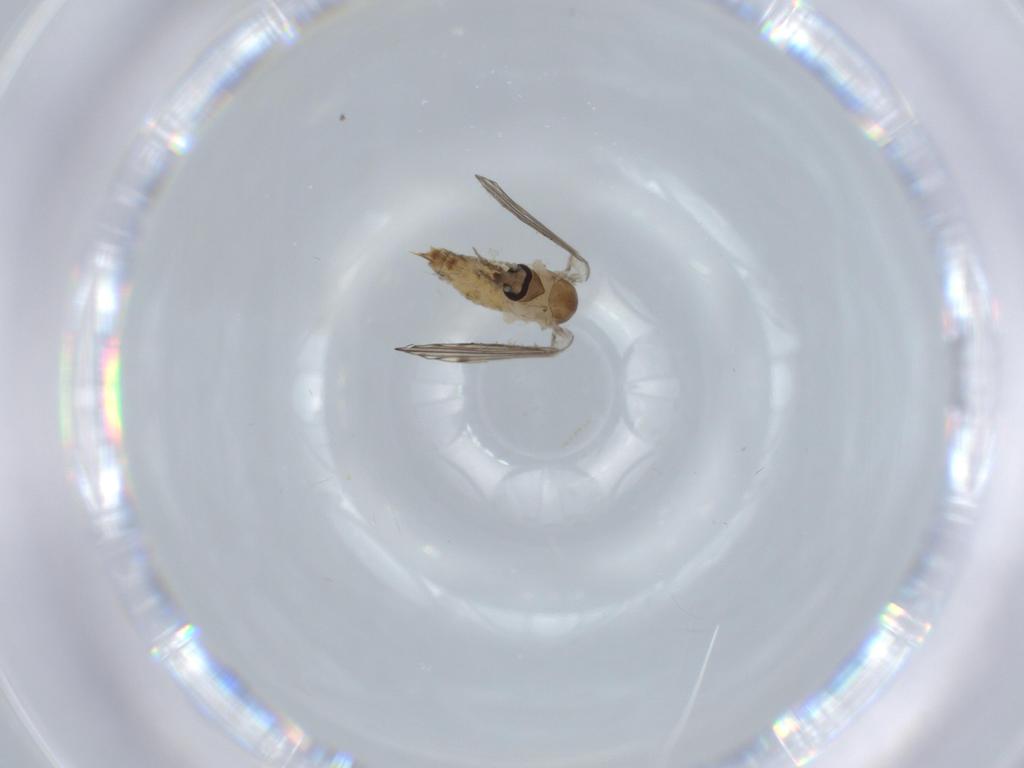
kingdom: Animalia
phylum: Arthropoda
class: Insecta
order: Diptera
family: Psychodidae
